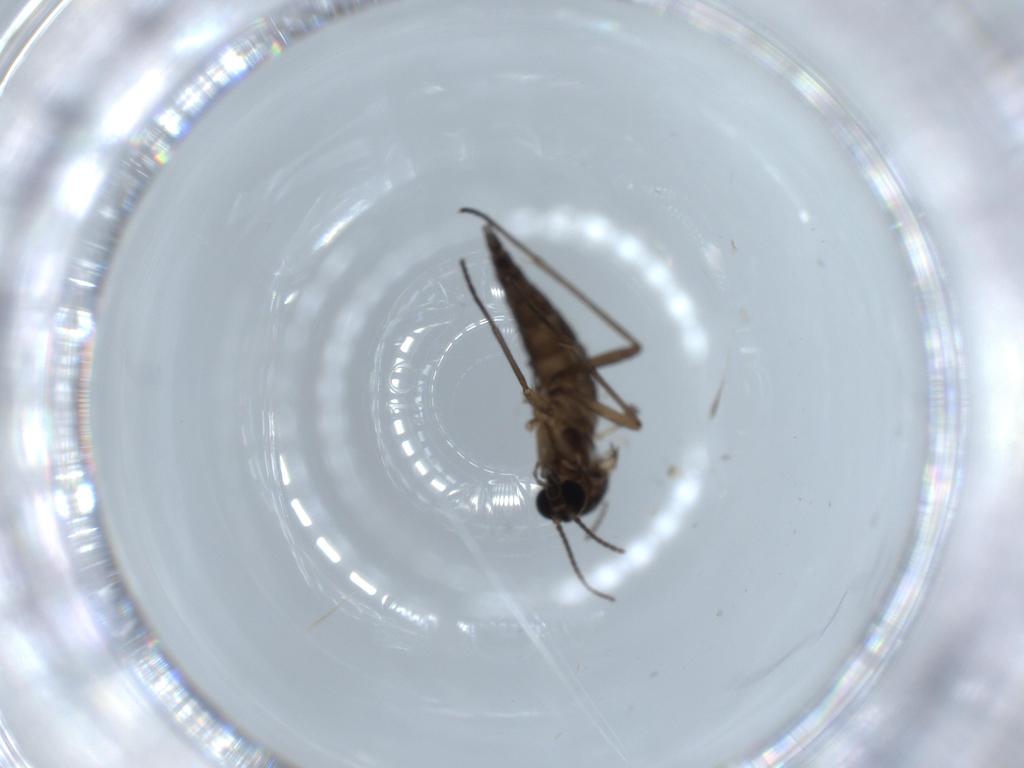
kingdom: Animalia
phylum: Arthropoda
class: Insecta
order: Diptera
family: Sciaridae
